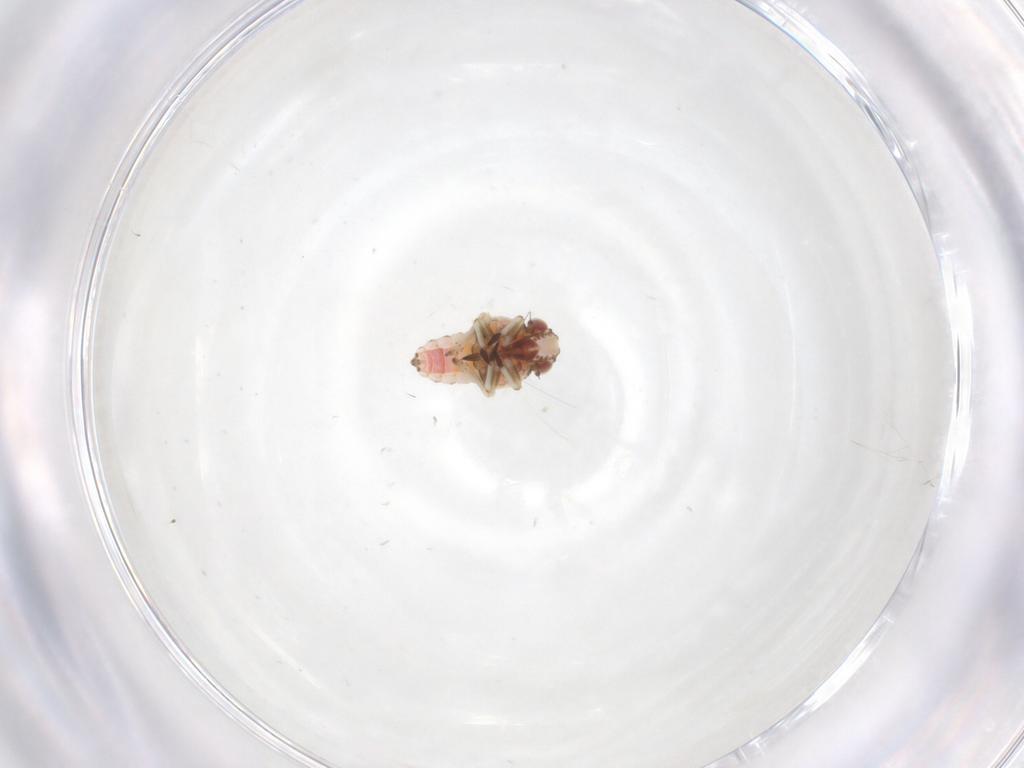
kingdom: Animalia
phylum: Arthropoda
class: Insecta
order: Hemiptera
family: Tropiduchidae
